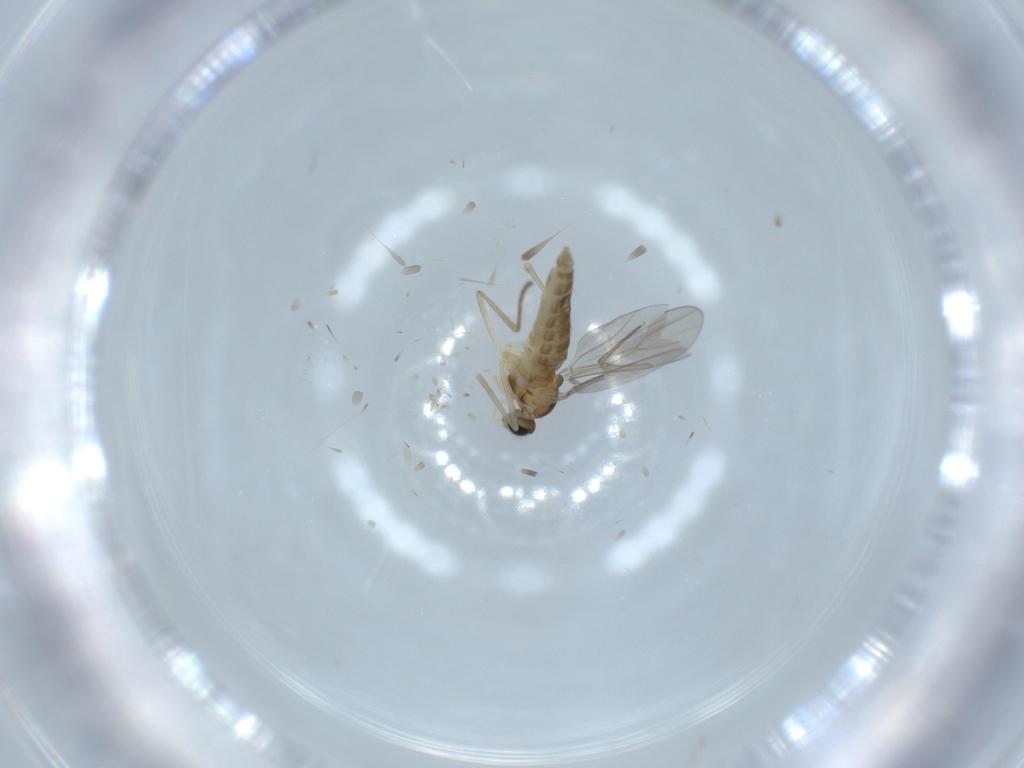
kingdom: Animalia
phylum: Arthropoda
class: Insecta
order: Diptera
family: Cecidomyiidae
